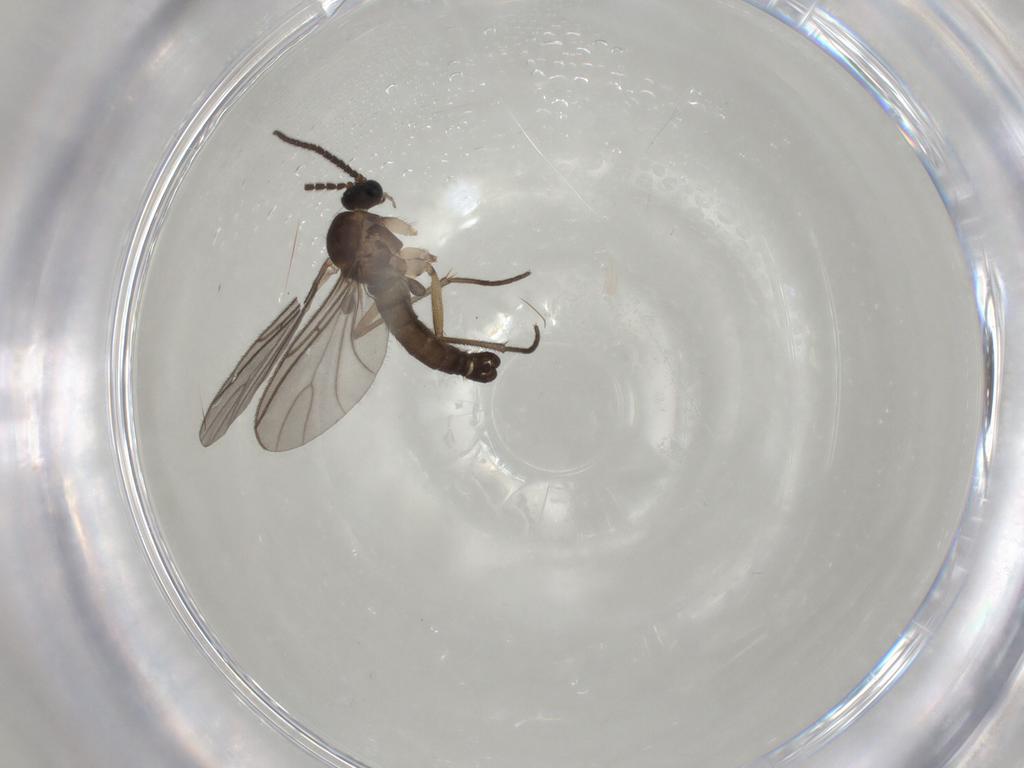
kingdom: Animalia
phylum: Arthropoda
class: Insecta
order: Diptera
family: Sciaridae
